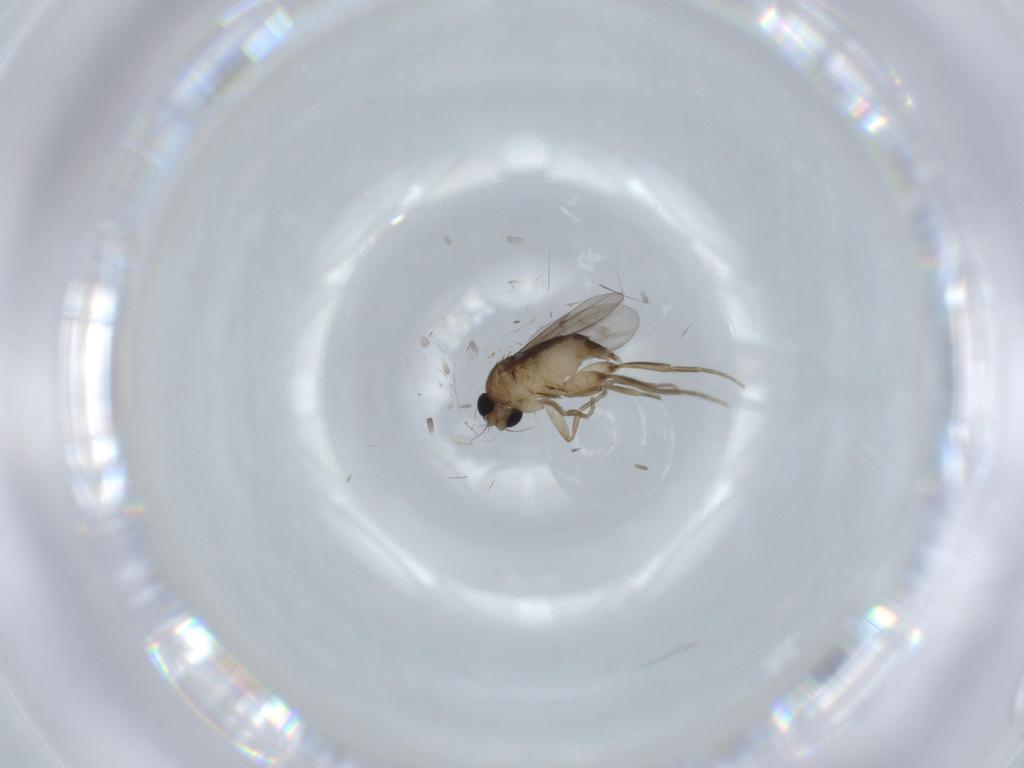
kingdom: Animalia
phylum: Arthropoda
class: Insecta
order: Diptera
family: Phoridae
